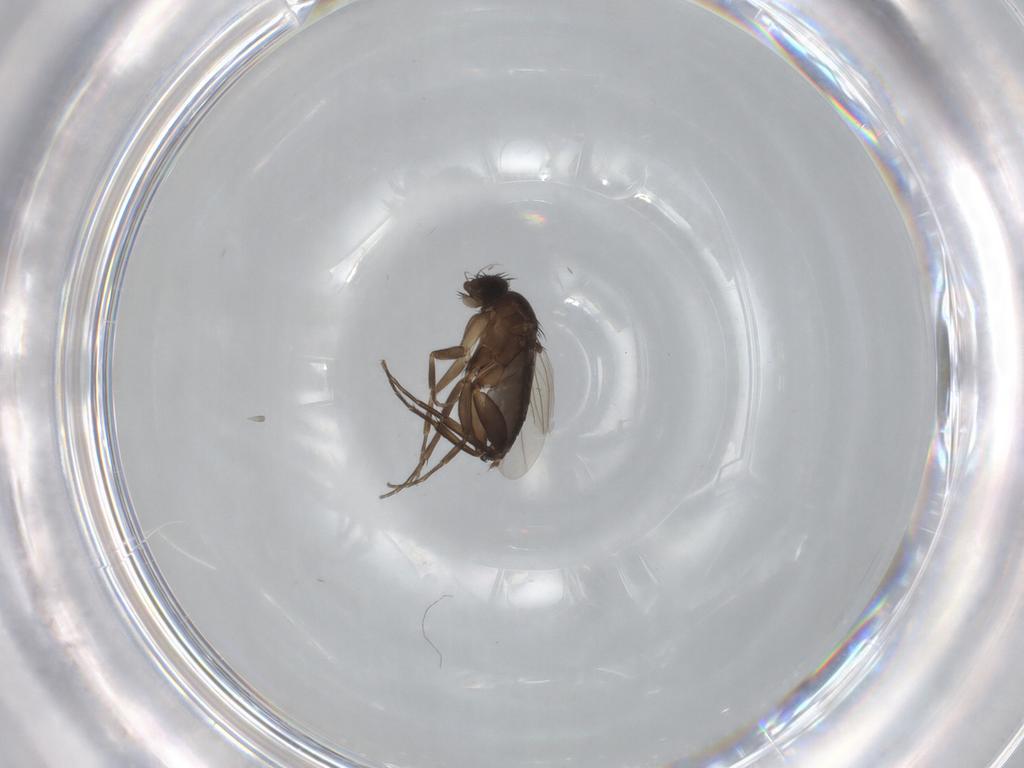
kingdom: Animalia
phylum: Arthropoda
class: Insecta
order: Diptera
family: Phoridae
